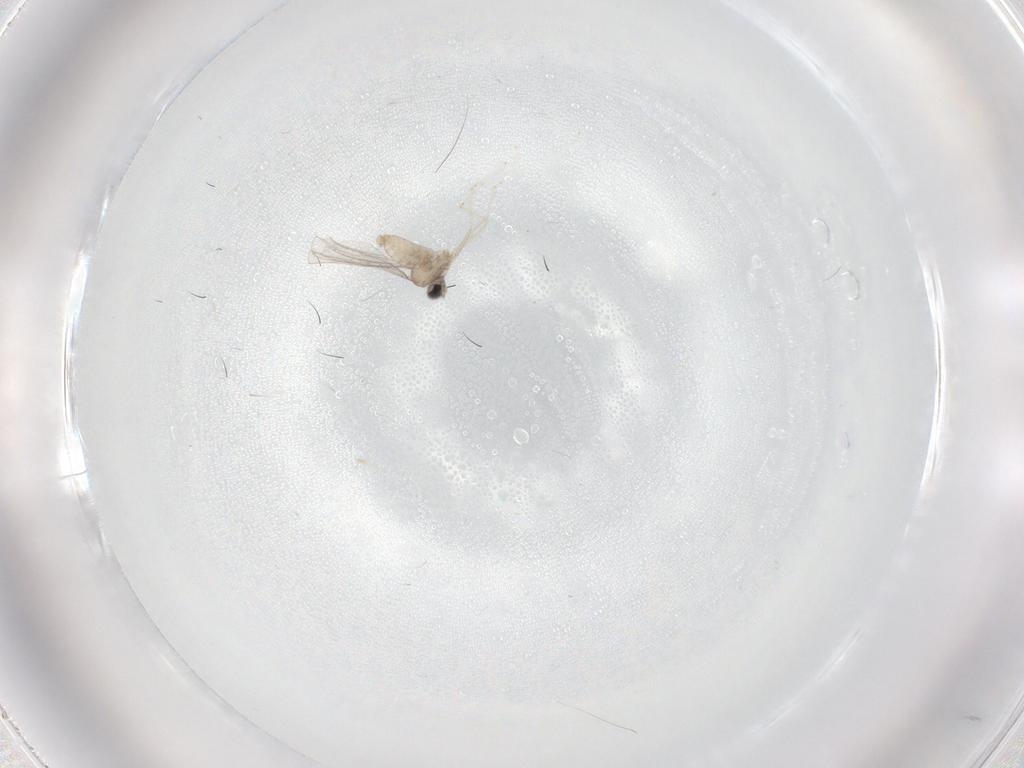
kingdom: Animalia
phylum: Arthropoda
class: Insecta
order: Diptera
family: Cecidomyiidae
